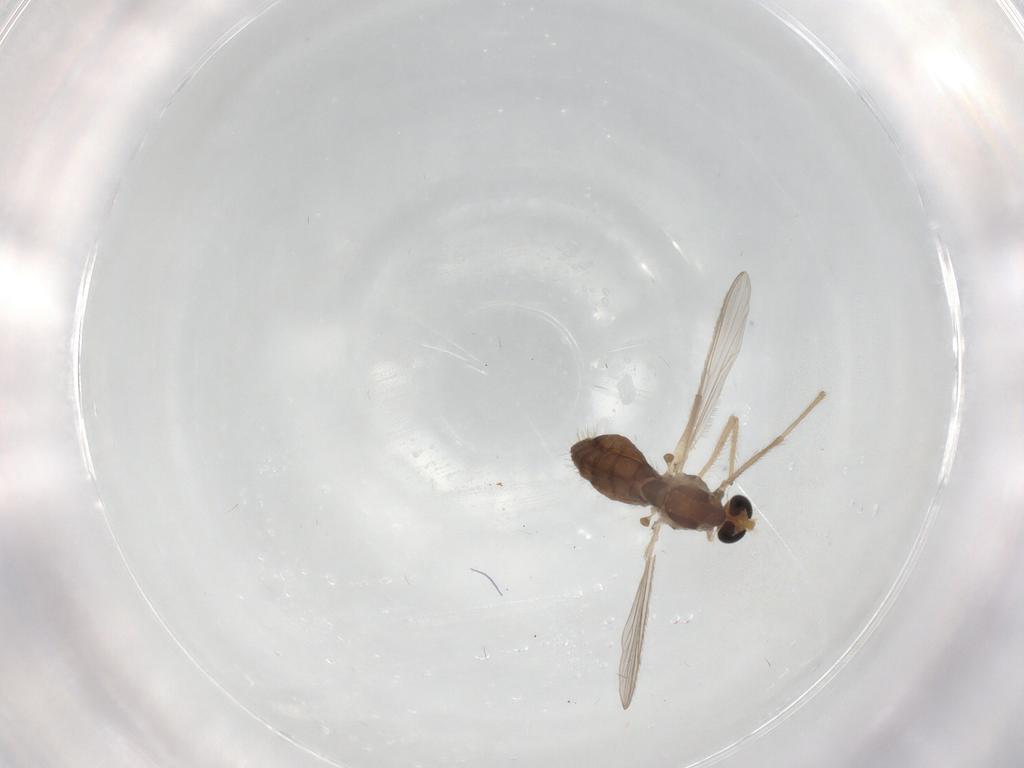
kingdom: Animalia
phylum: Arthropoda
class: Insecta
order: Diptera
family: Chironomidae
